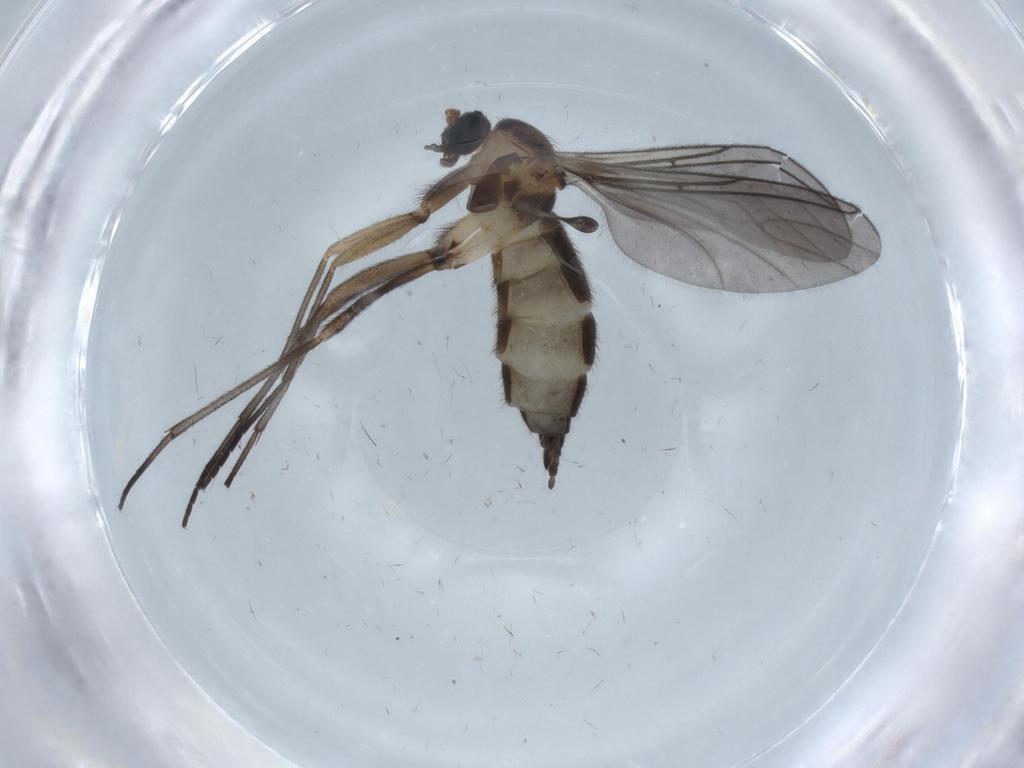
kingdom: Animalia
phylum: Arthropoda
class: Insecta
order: Diptera
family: Sciaridae
